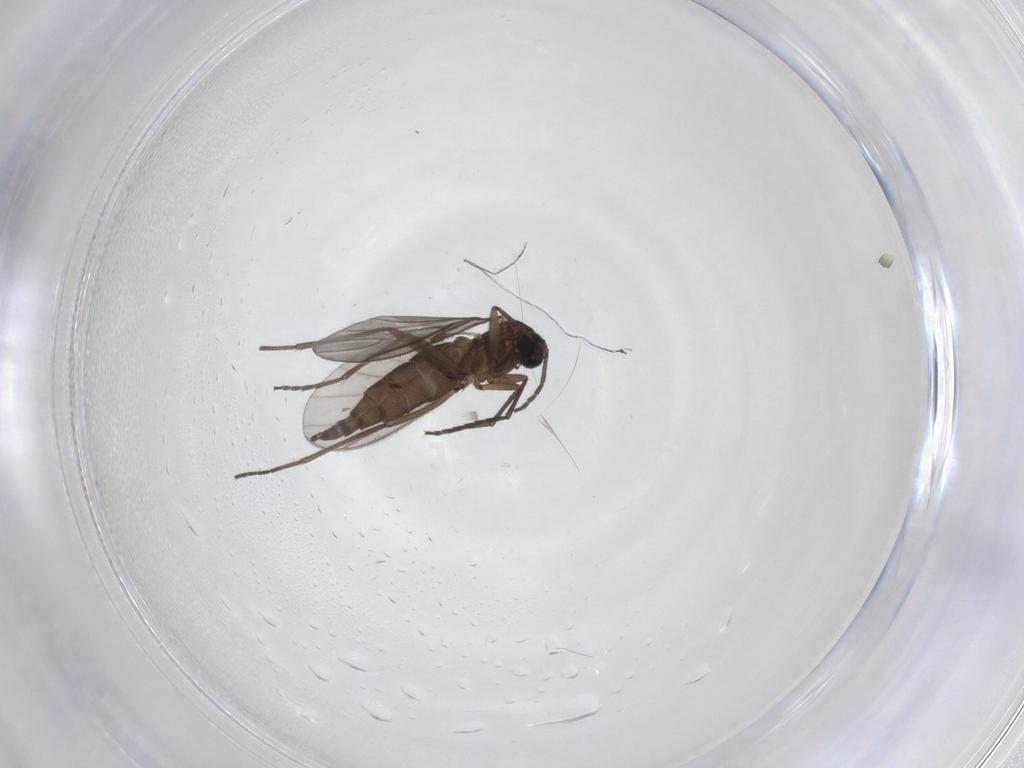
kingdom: Animalia
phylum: Arthropoda
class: Insecta
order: Diptera
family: Sciaridae
